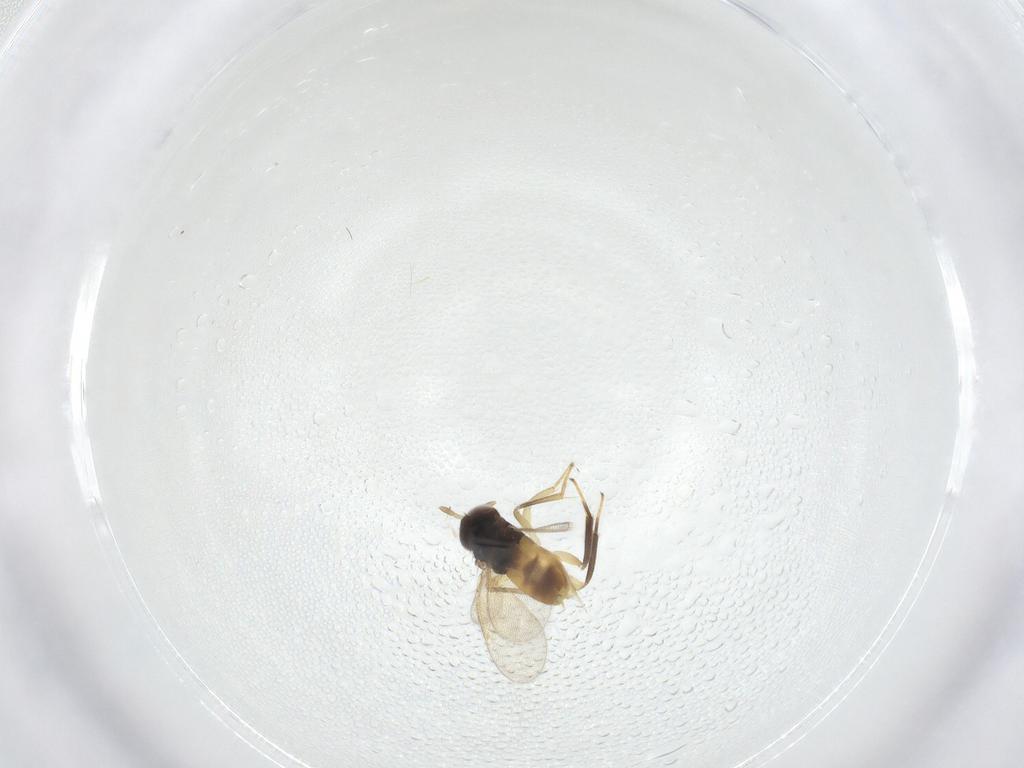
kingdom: Animalia
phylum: Arthropoda
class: Insecta
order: Hymenoptera
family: Aphelinidae
